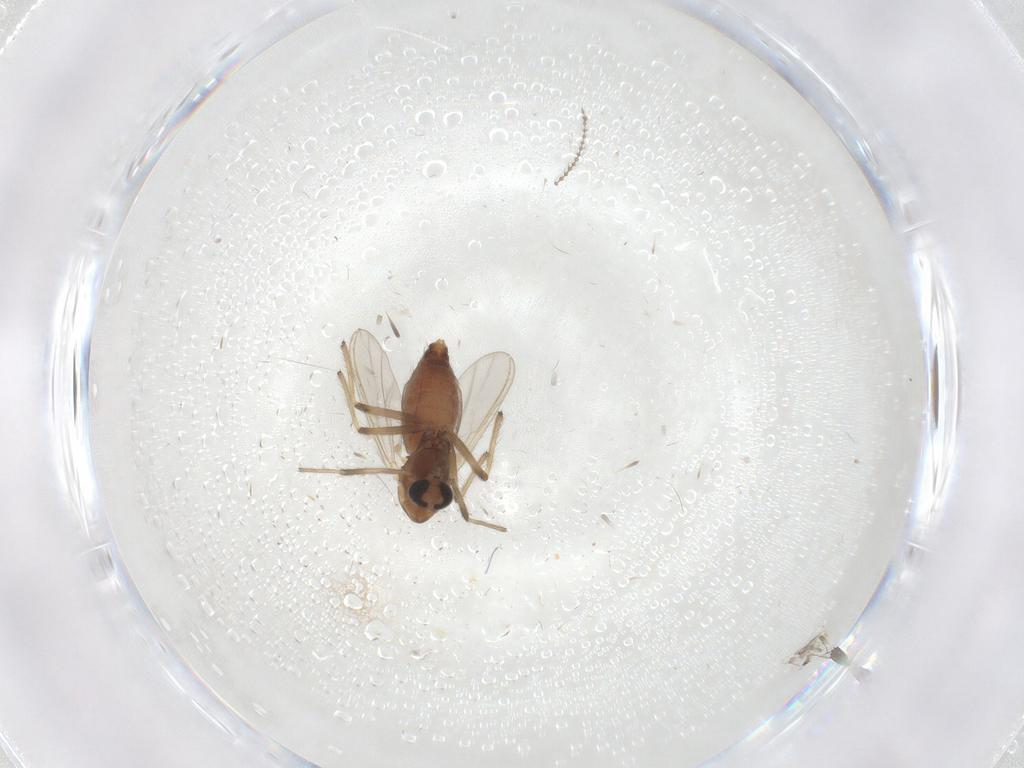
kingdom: Animalia
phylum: Arthropoda
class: Insecta
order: Diptera
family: Chironomidae
